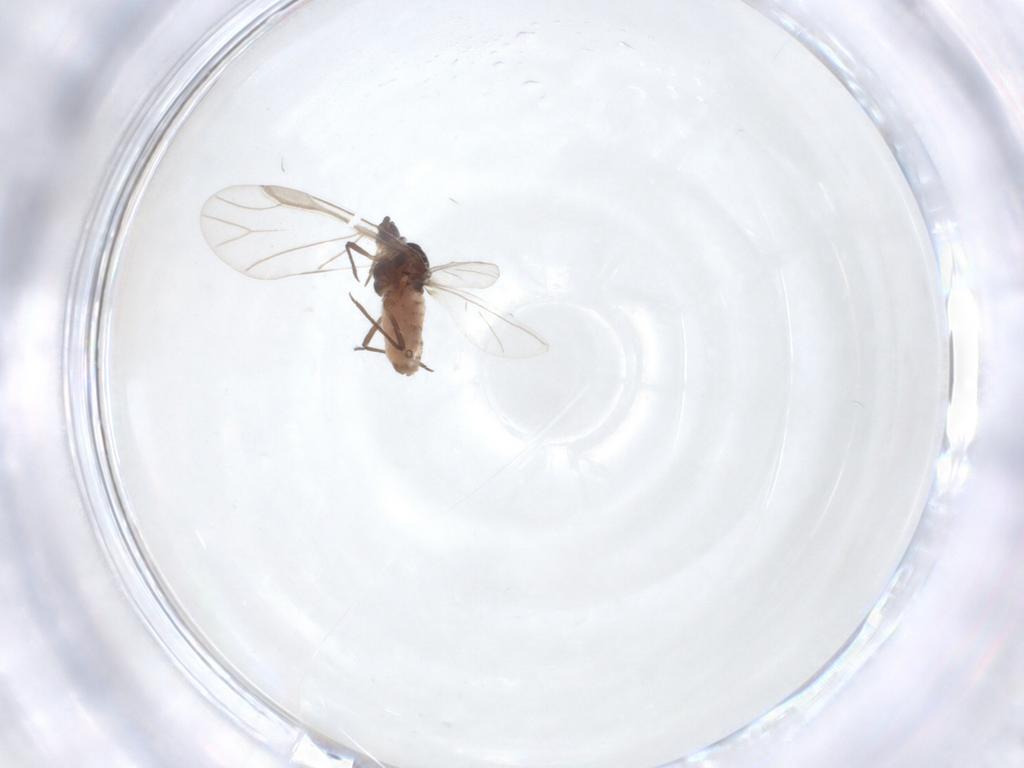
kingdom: Animalia
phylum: Arthropoda
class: Insecta
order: Hemiptera
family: Aphididae
